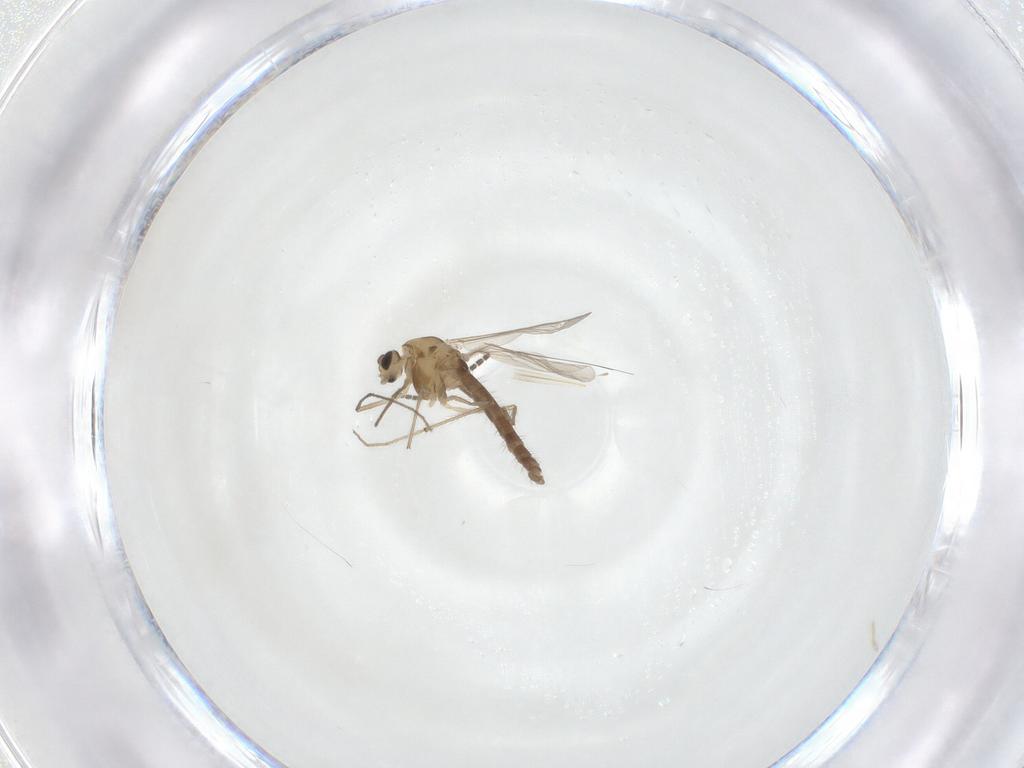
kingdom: Animalia
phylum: Arthropoda
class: Insecta
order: Diptera
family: Chironomidae
